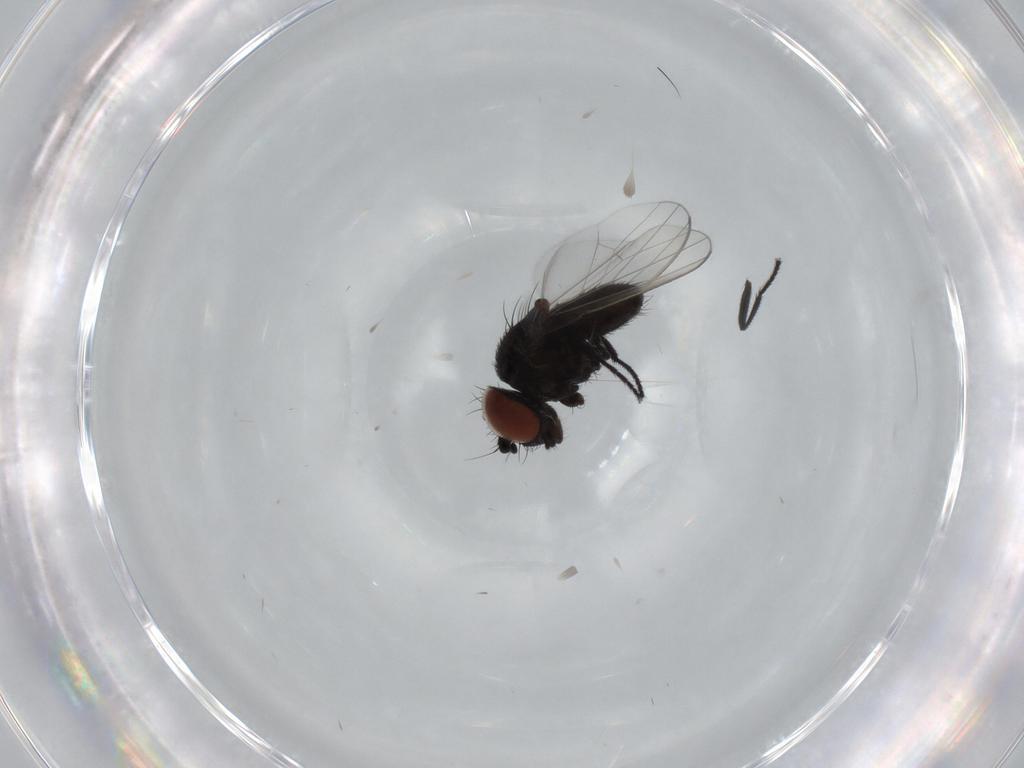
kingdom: Animalia
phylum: Arthropoda
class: Insecta
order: Diptera
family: Milichiidae
